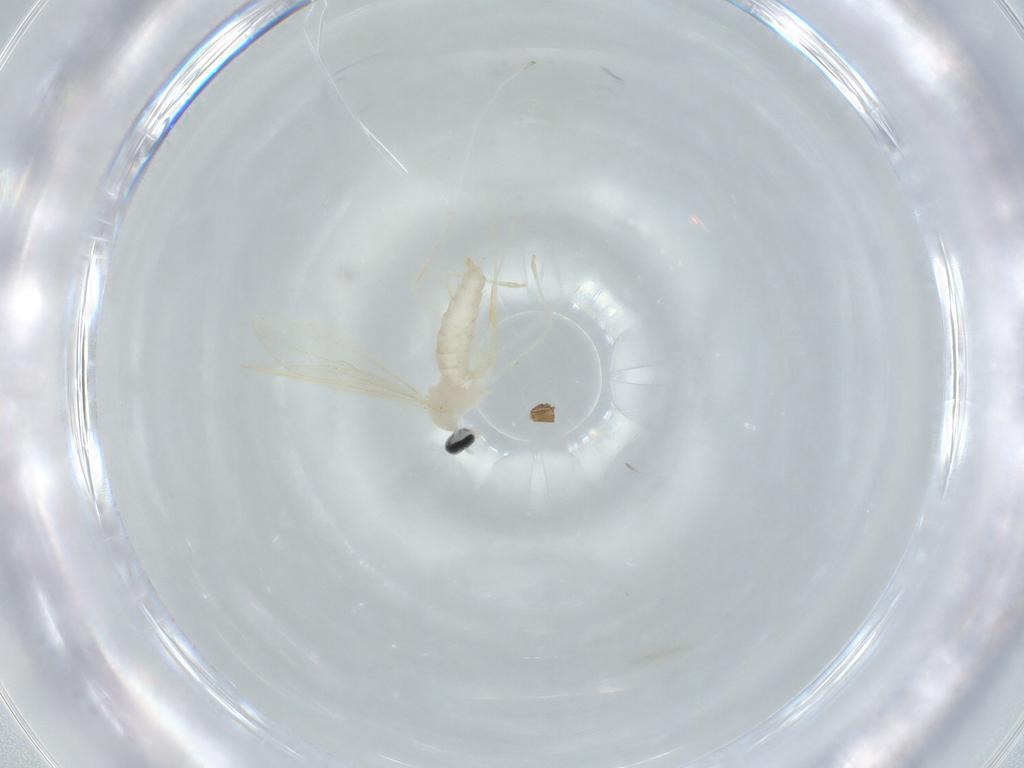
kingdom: Animalia
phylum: Arthropoda
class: Insecta
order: Diptera
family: Cecidomyiidae
